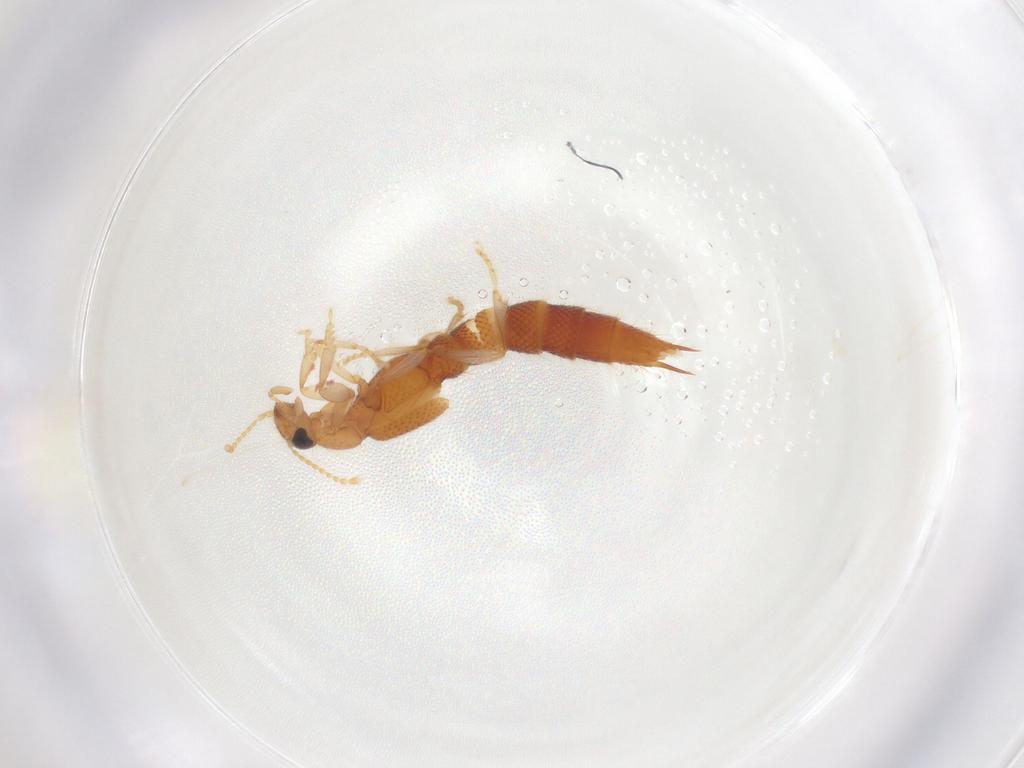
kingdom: Animalia
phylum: Arthropoda
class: Insecta
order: Coleoptera
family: Staphylinidae
